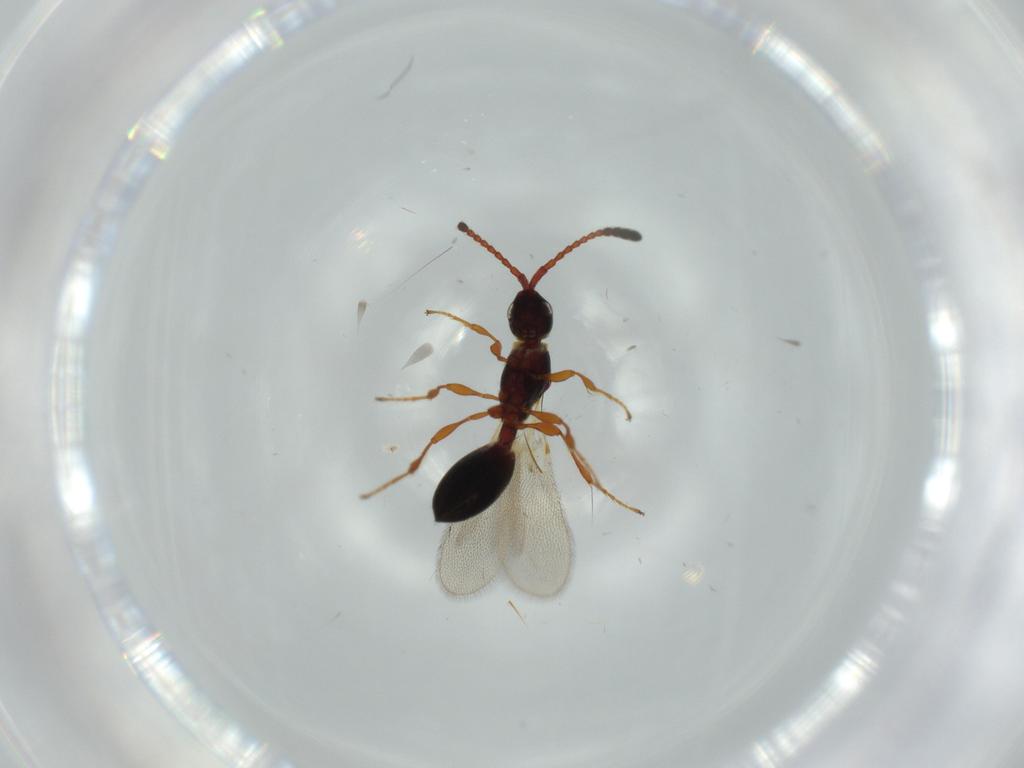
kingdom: Animalia
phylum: Arthropoda
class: Insecta
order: Hymenoptera
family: Diapriidae
